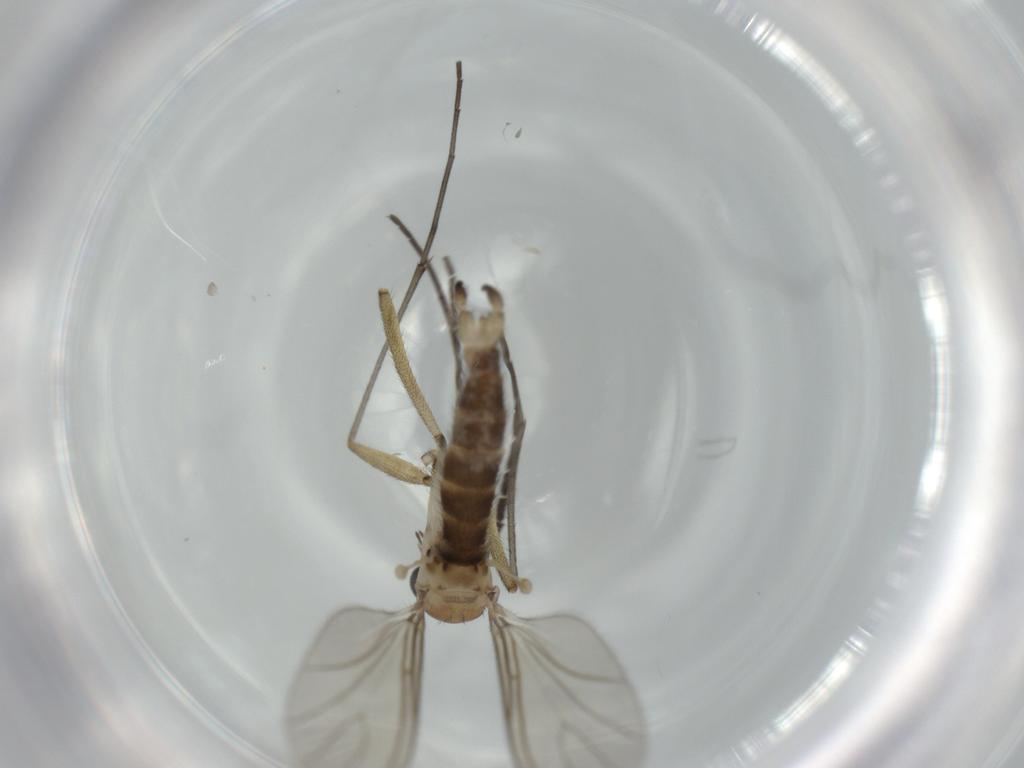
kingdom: Animalia
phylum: Arthropoda
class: Insecta
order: Diptera
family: Sciaridae
